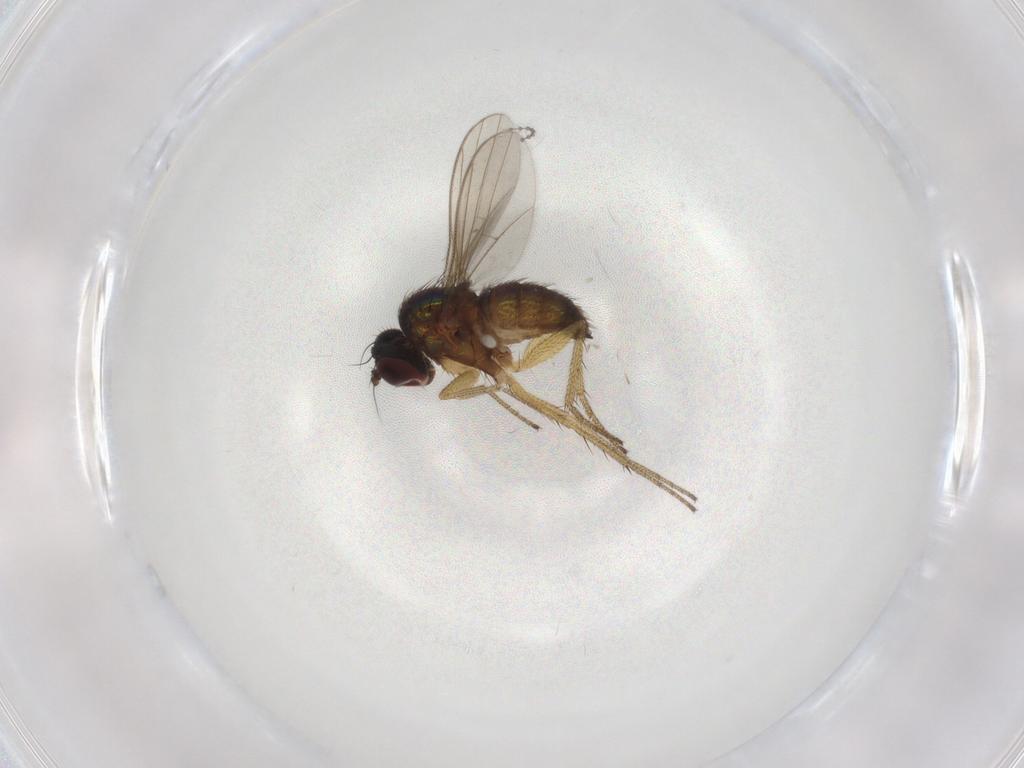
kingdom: Animalia
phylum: Arthropoda
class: Insecta
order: Diptera
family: Dolichopodidae
